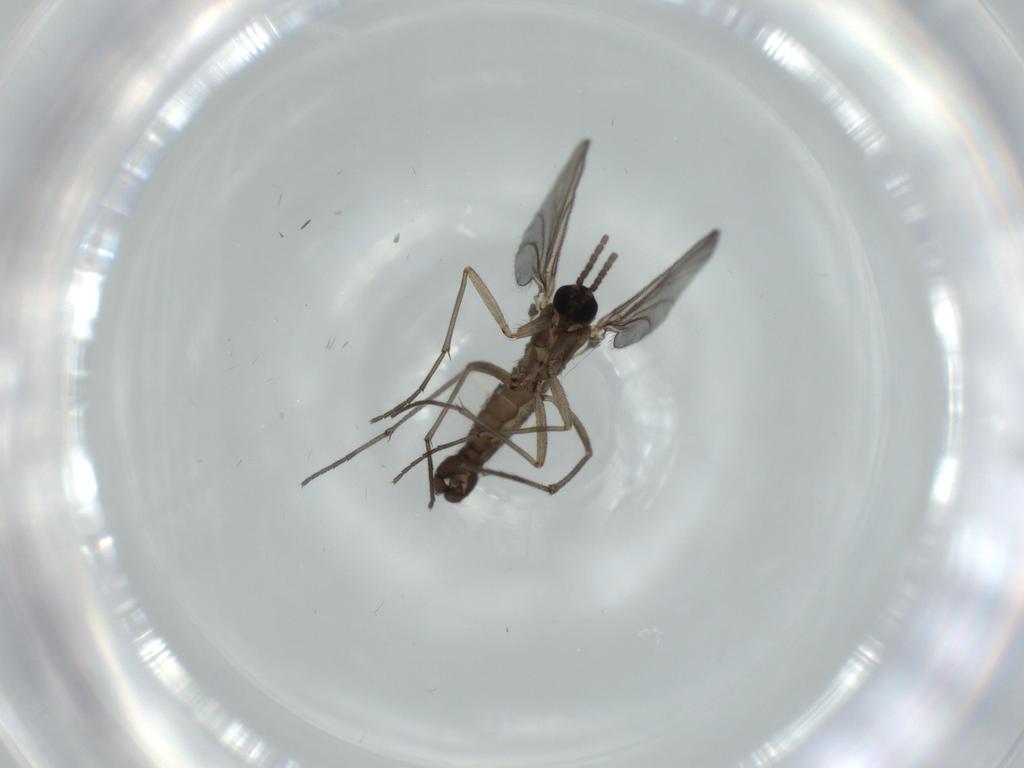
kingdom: Animalia
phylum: Arthropoda
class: Insecta
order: Diptera
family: Sciaridae
